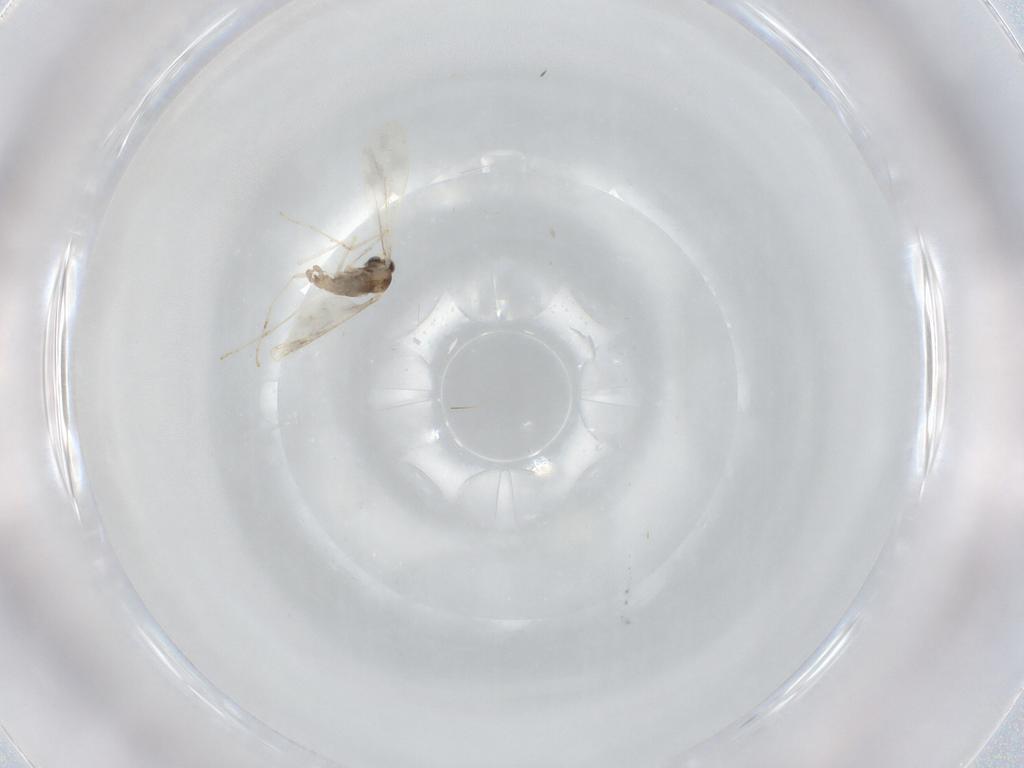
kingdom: Animalia
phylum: Arthropoda
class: Insecta
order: Diptera
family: Cecidomyiidae
